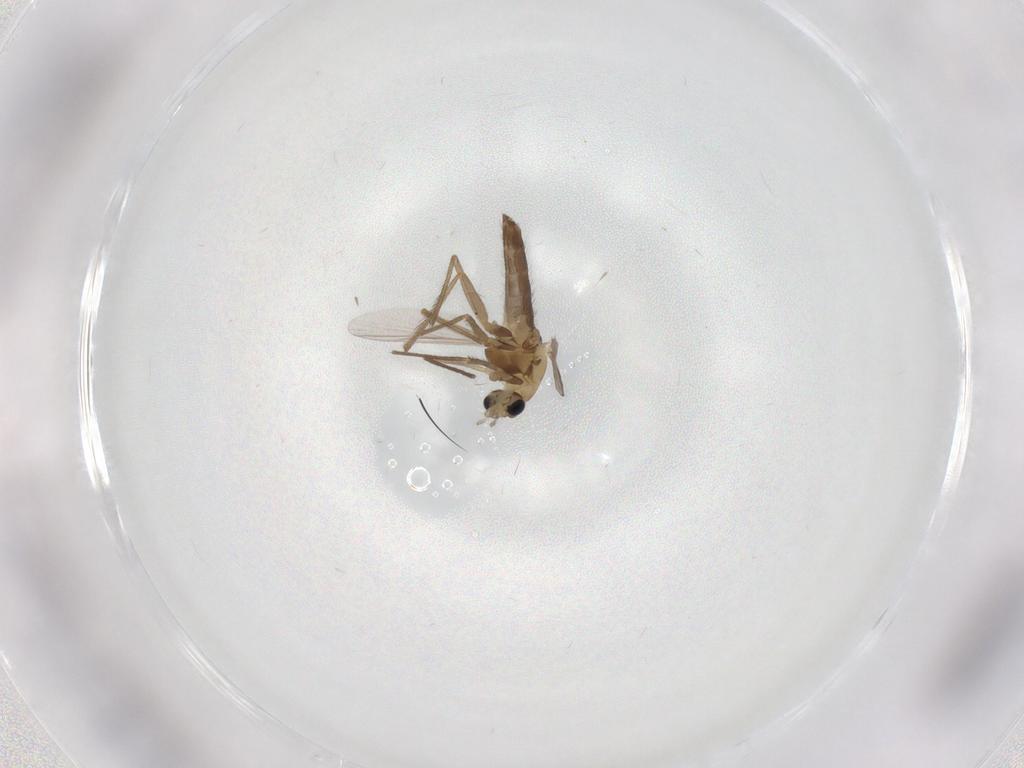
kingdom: Animalia
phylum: Arthropoda
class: Insecta
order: Diptera
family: Chironomidae
